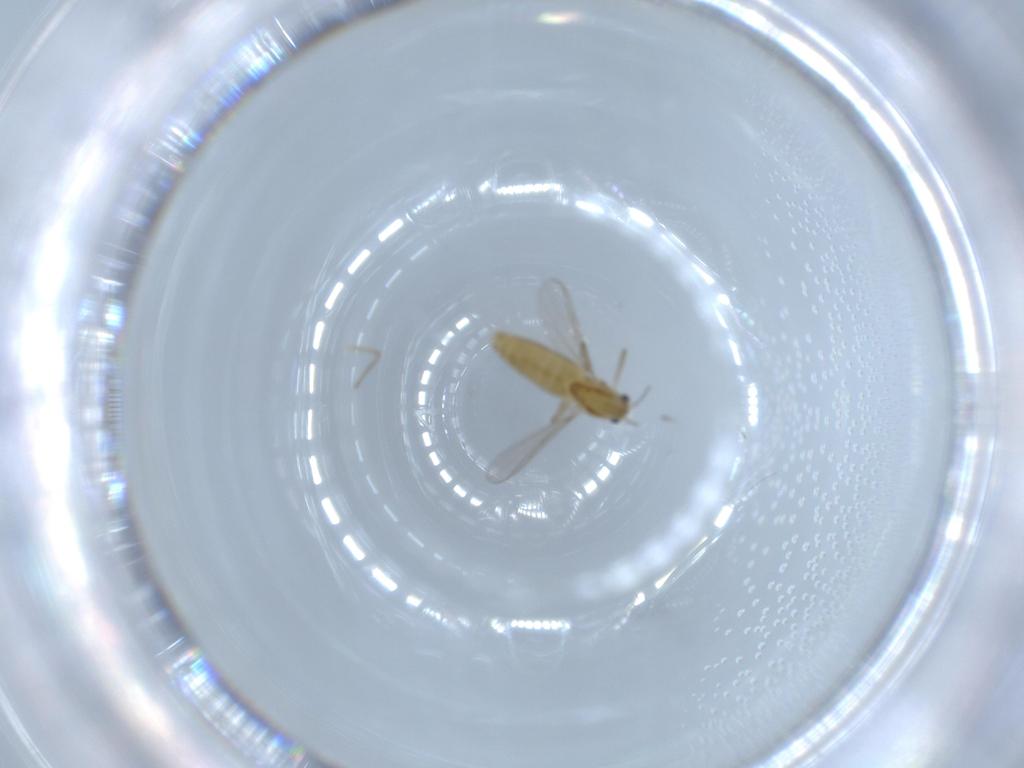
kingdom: Animalia
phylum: Arthropoda
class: Insecta
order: Diptera
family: Chironomidae
